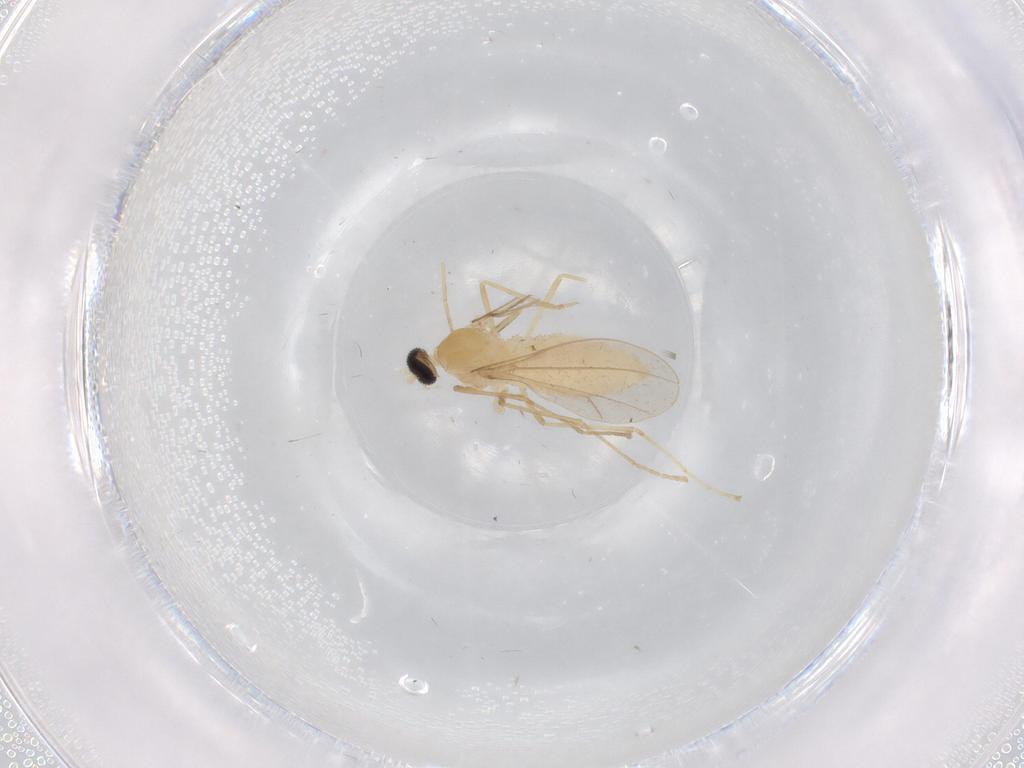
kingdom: Animalia
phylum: Arthropoda
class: Insecta
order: Diptera
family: Cecidomyiidae
